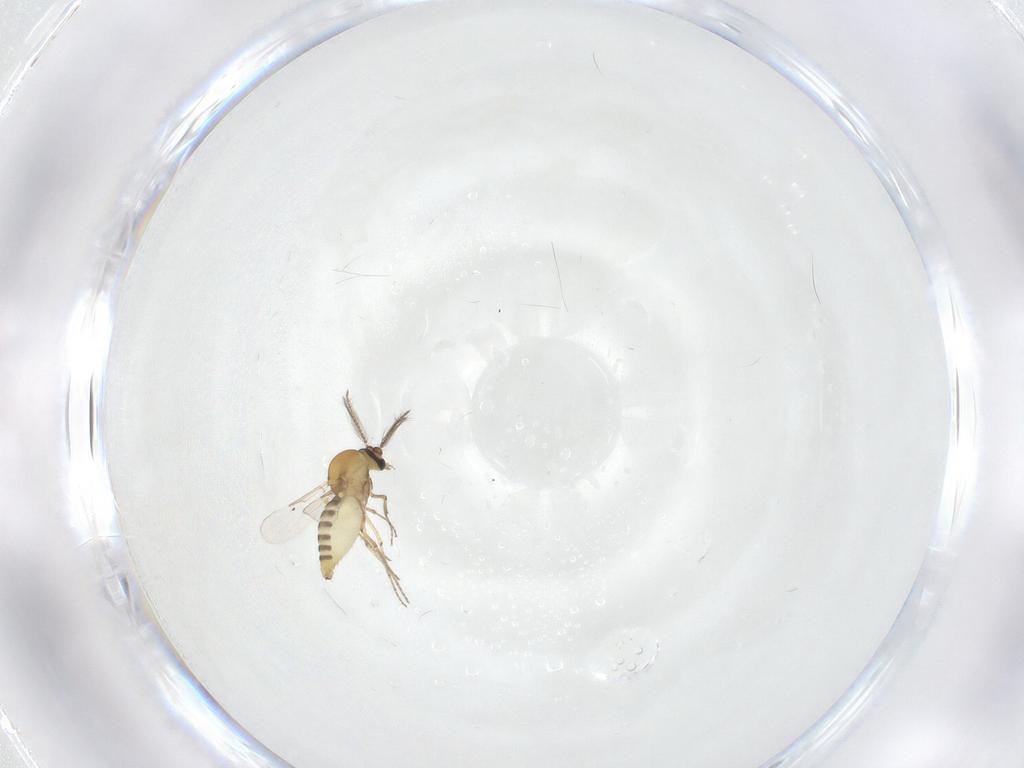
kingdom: Animalia
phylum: Arthropoda
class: Insecta
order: Diptera
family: Ceratopogonidae
